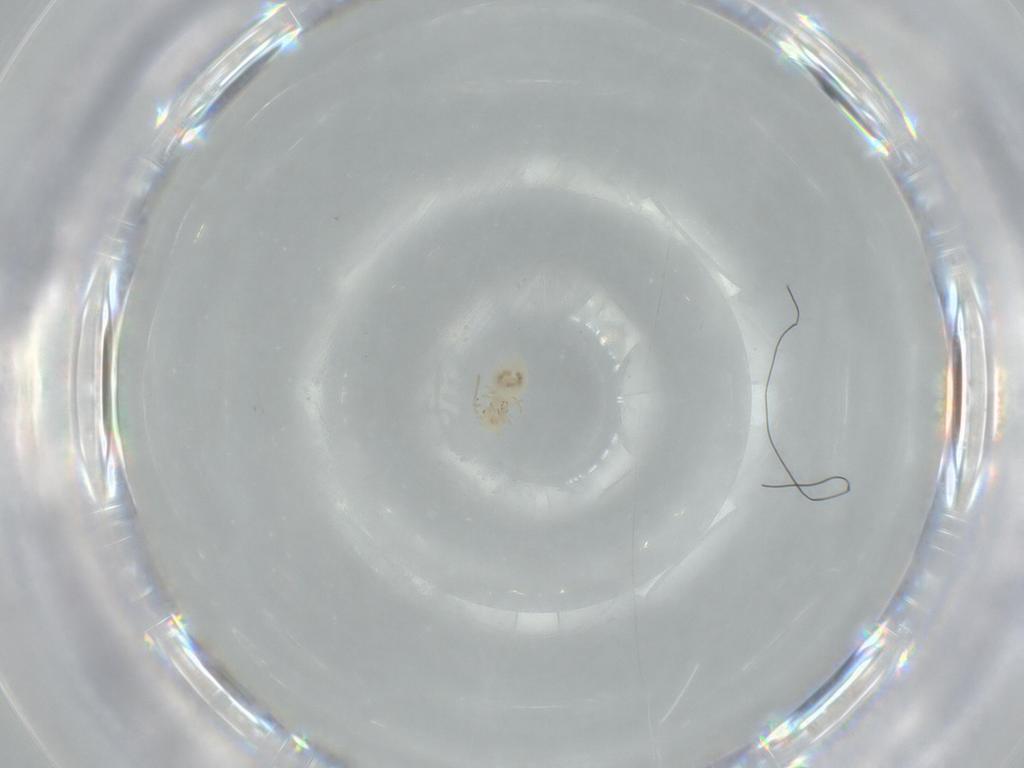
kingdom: Animalia
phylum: Arthropoda
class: Insecta
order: Psocodea
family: Caeciliusidae
